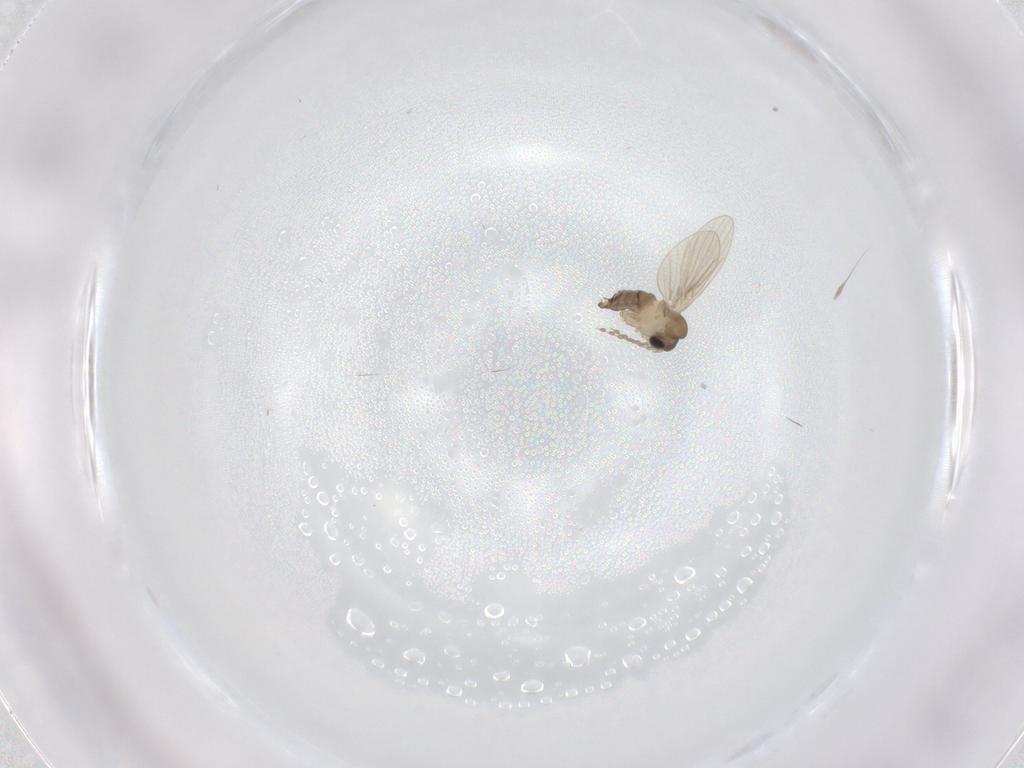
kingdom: Animalia
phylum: Arthropoda
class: Insecta
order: Diptera
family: Psychodidae
